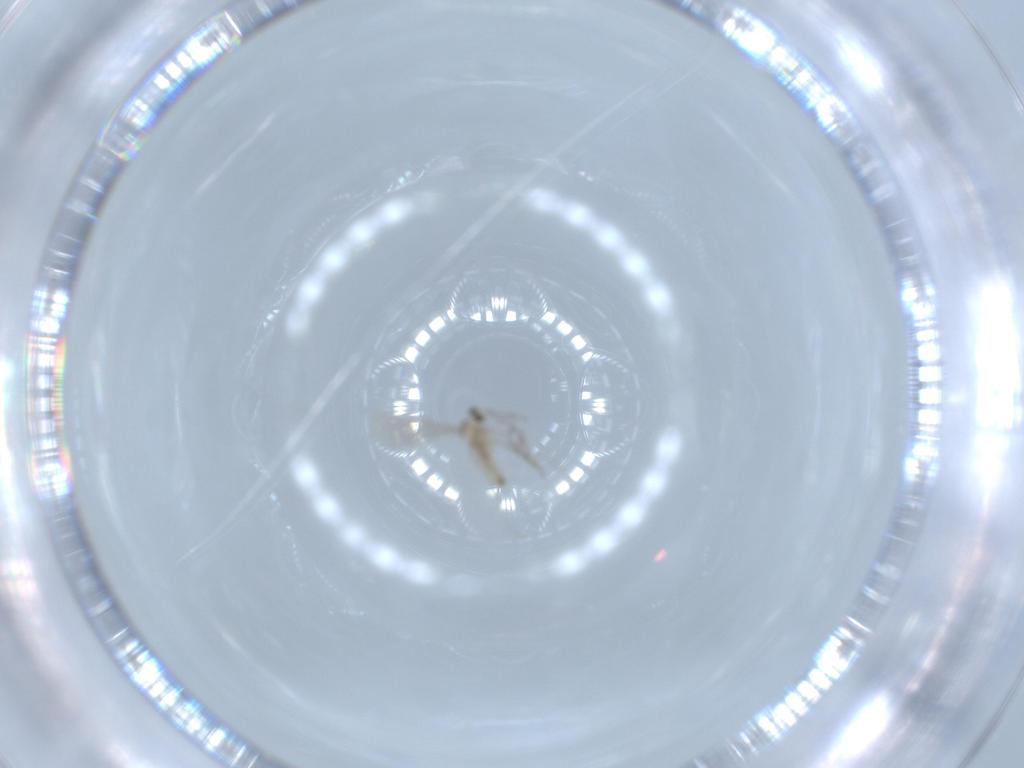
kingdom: Animalia
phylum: Arthropoda
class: Insecta
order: Diptera
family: Cecidomyiidae
